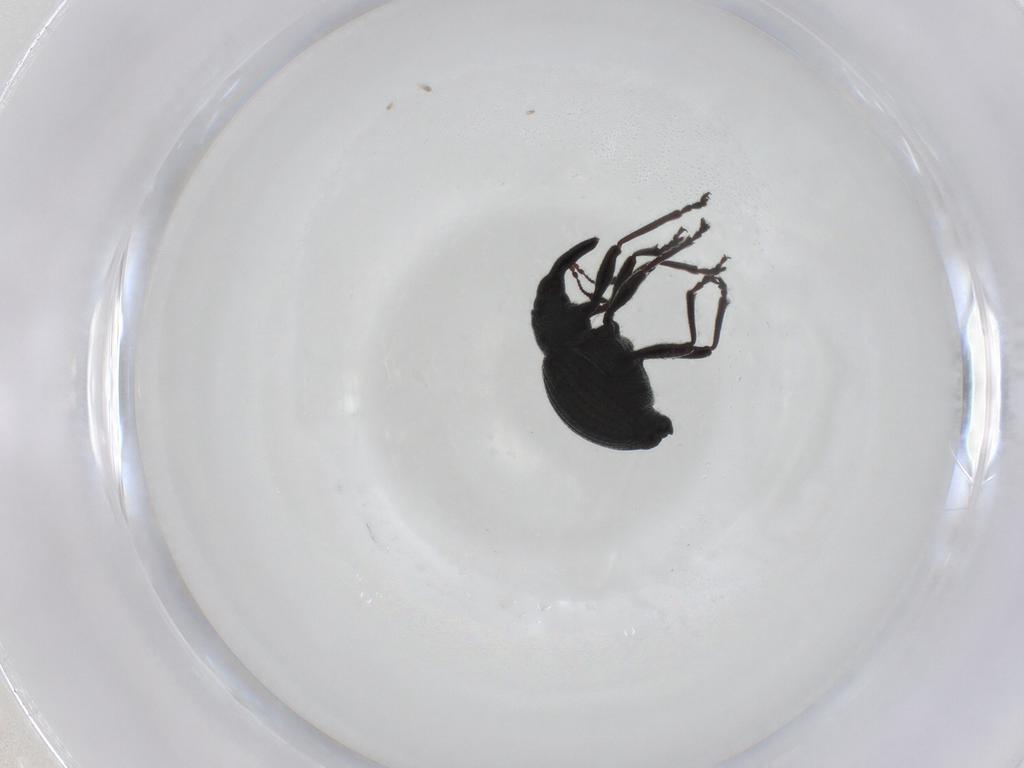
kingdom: Animalia
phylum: Arthropoda
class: Insecta
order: Coleoptera
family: Brentidae
